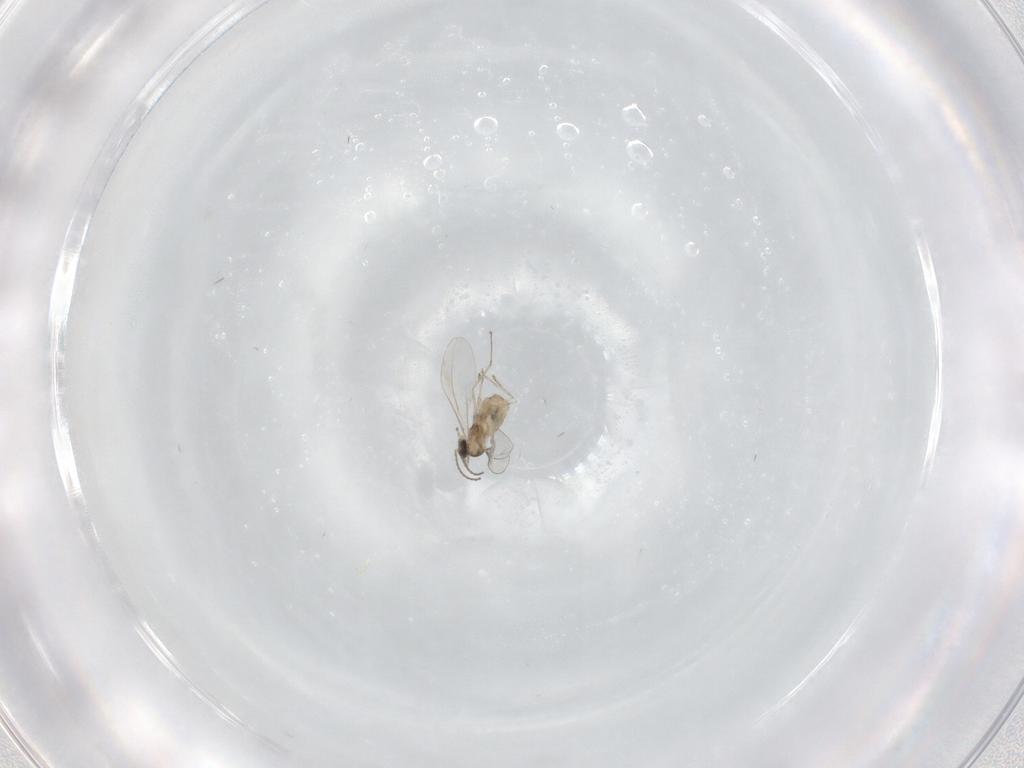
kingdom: Animalia
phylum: Arthropoda
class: Insecta
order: Diptera
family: Cecidomyiidae
